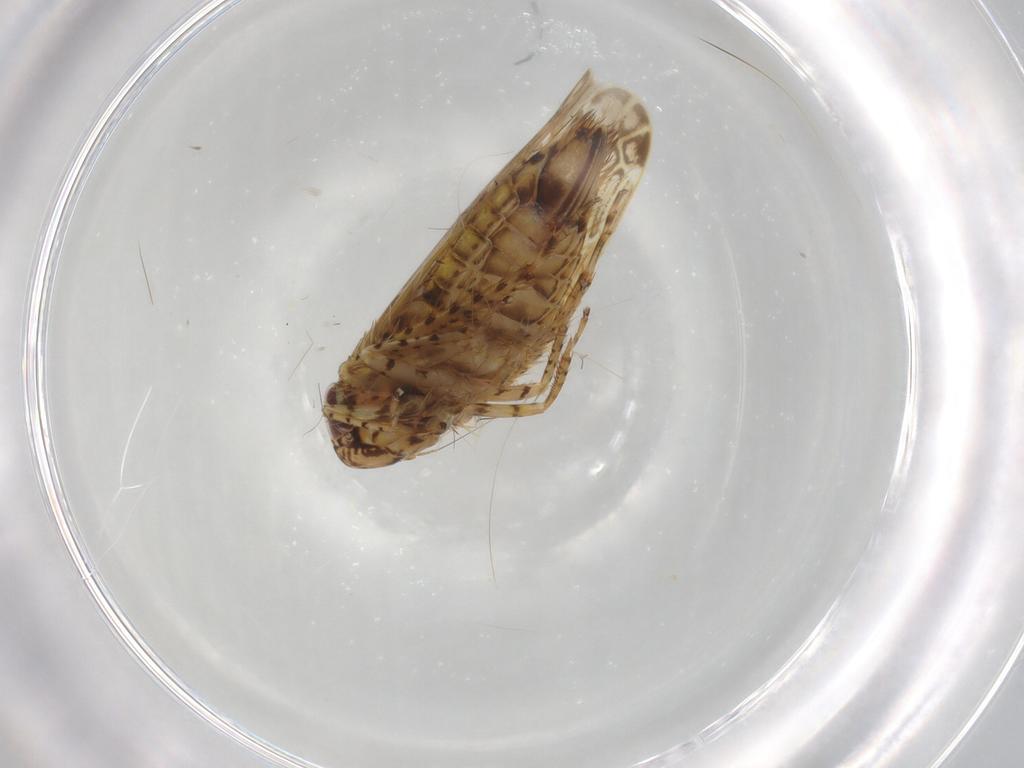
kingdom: Animalia
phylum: Arthropoda
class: Insecta
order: Hemiptera
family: Cicadellidae
